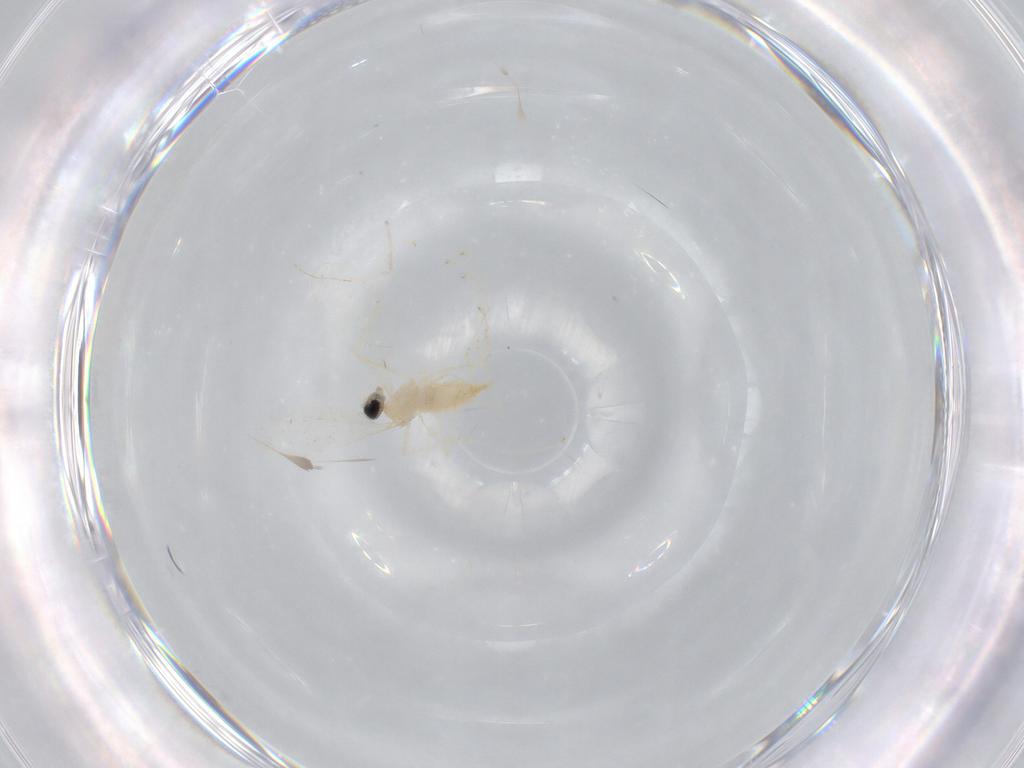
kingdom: Animalia
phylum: Arthropoda
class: Insecta
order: Diptera
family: Cecidomyiidae
